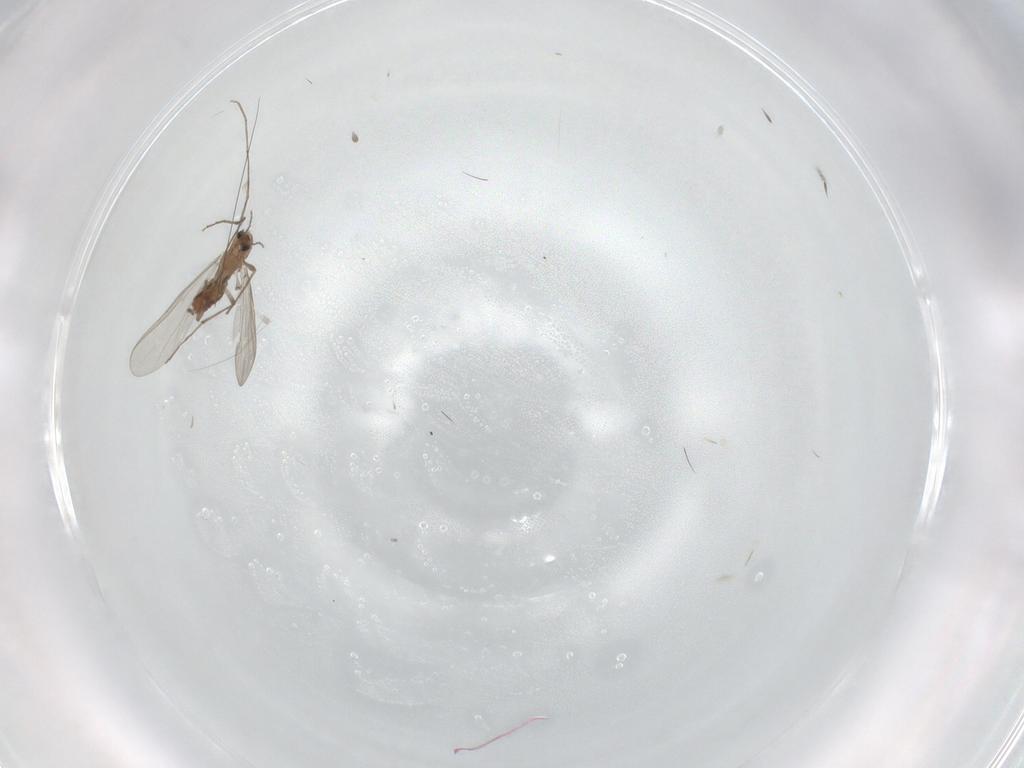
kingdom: Animalia
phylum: Arthropoda
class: Insecta
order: Diptera
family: Chironomidae
